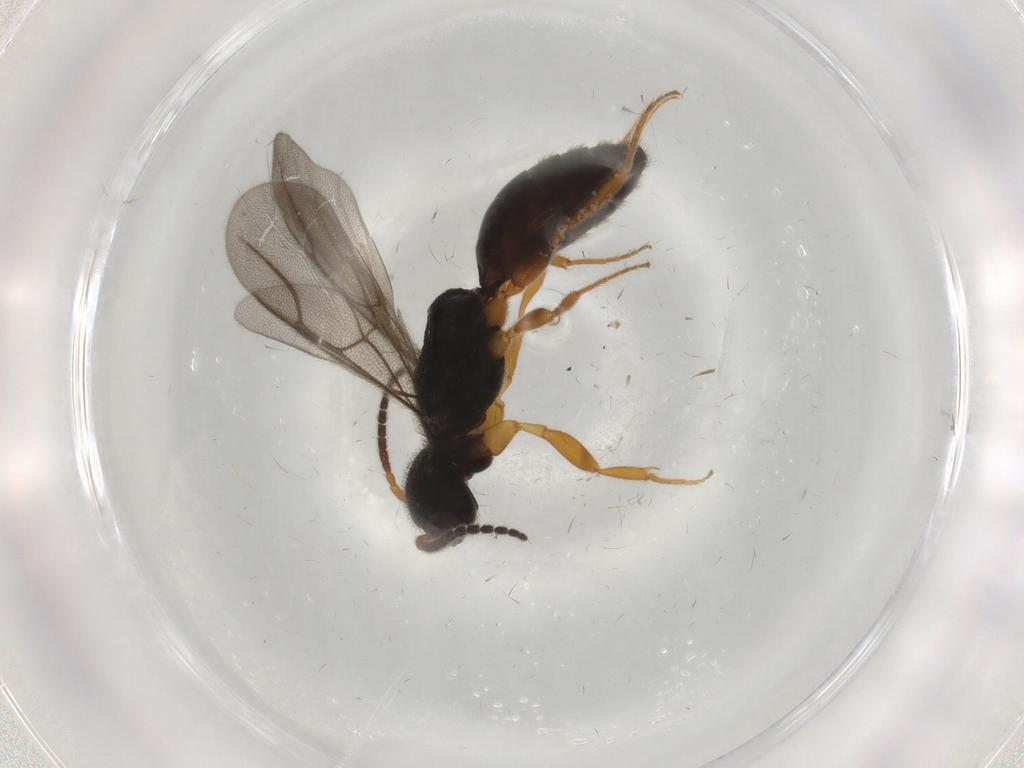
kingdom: Animalia
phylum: Arthropoda
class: Insecta
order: Hymenoptera
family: Bethylidae
